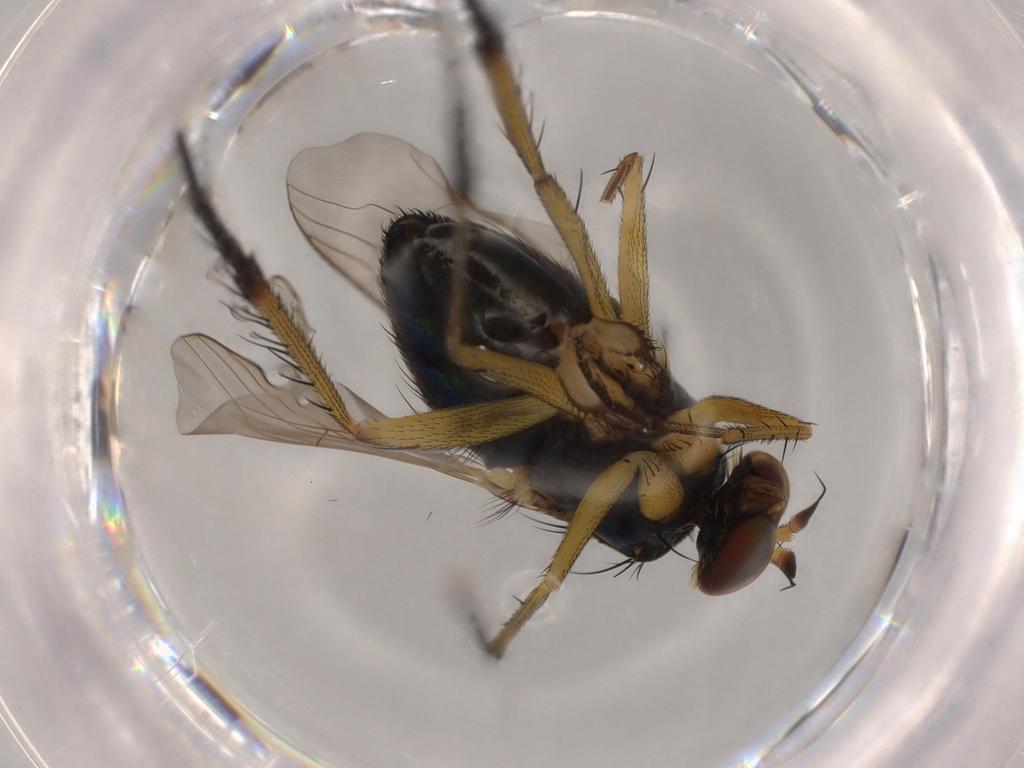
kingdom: Animalia
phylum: Arthropoda
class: Insecta
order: Diptera
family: Dolichopodidae
